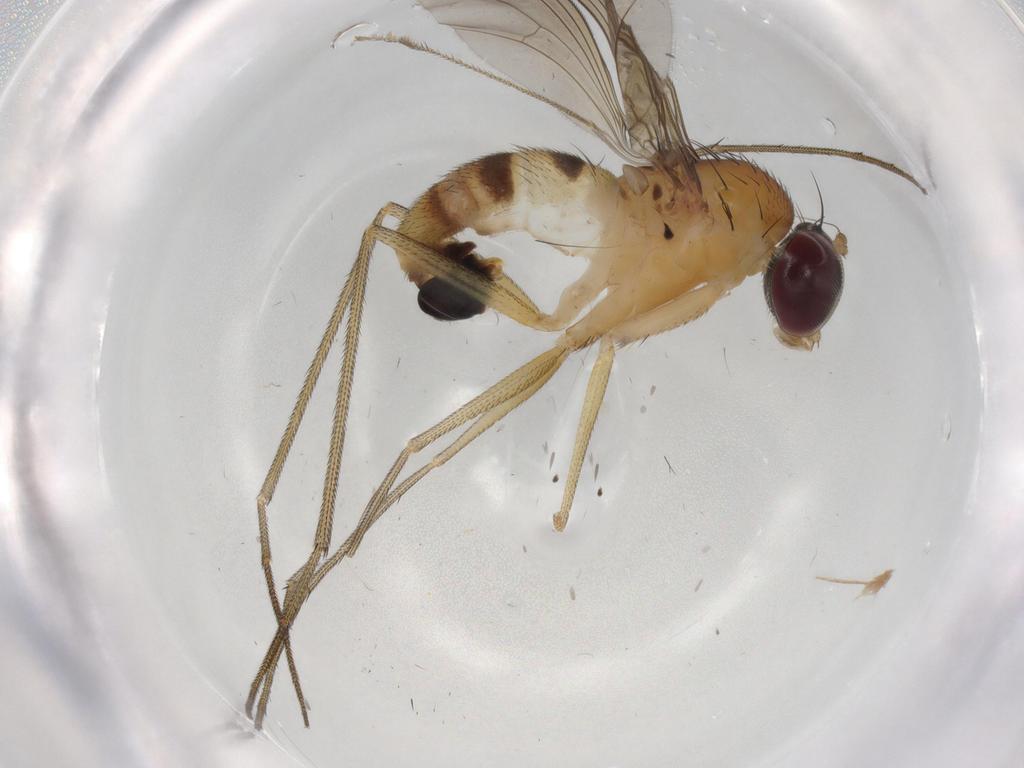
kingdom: Animalia
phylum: Arthropoda
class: Insecta
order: Diptera
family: Dolichopodidae
